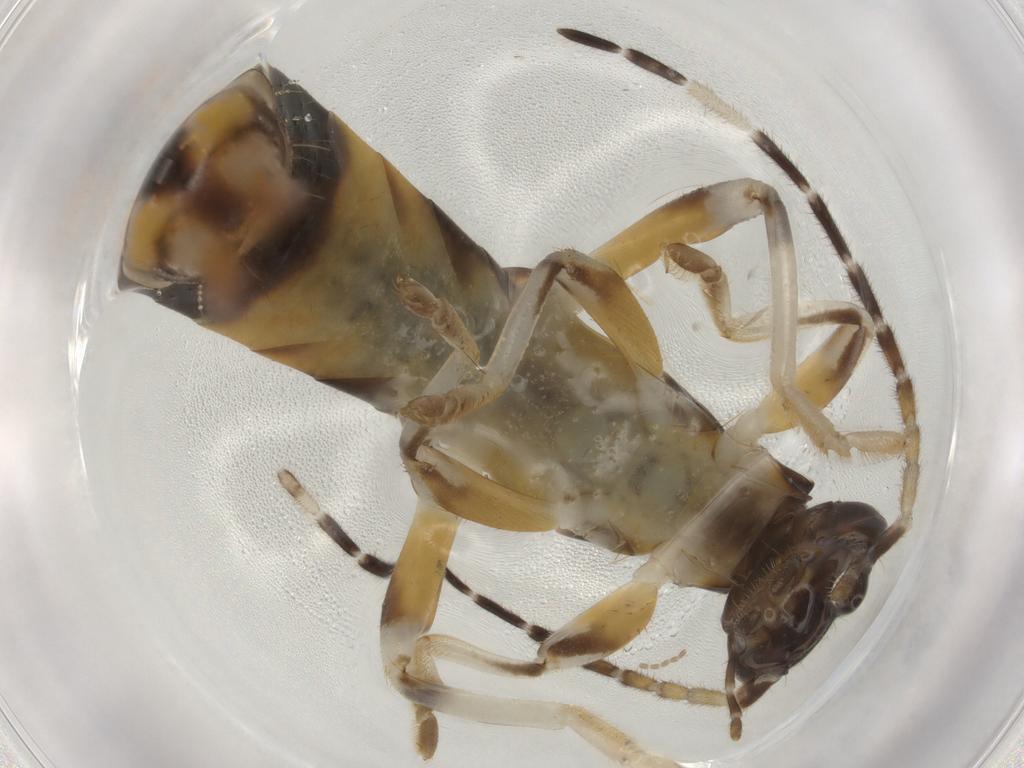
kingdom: Animalia
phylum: Arthropoda
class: Insecta
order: Dermaptera
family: Anisolabididae
